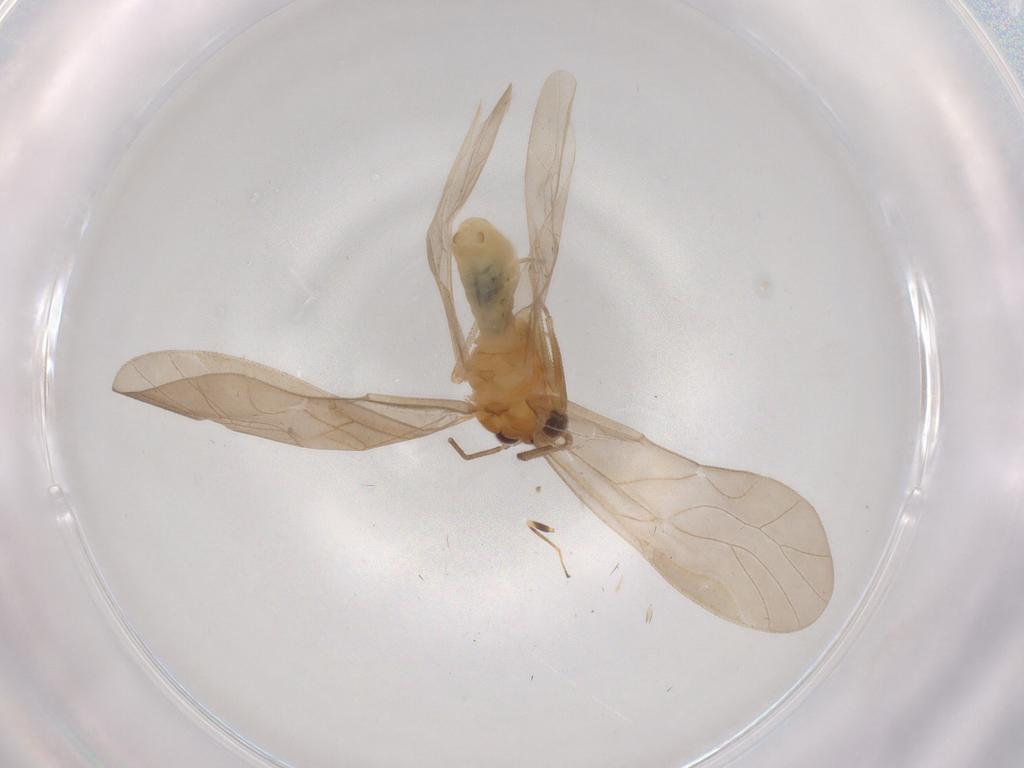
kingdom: Animalia
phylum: Arthropoda
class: Insecta
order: Psocodea
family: Caeciliusidae
